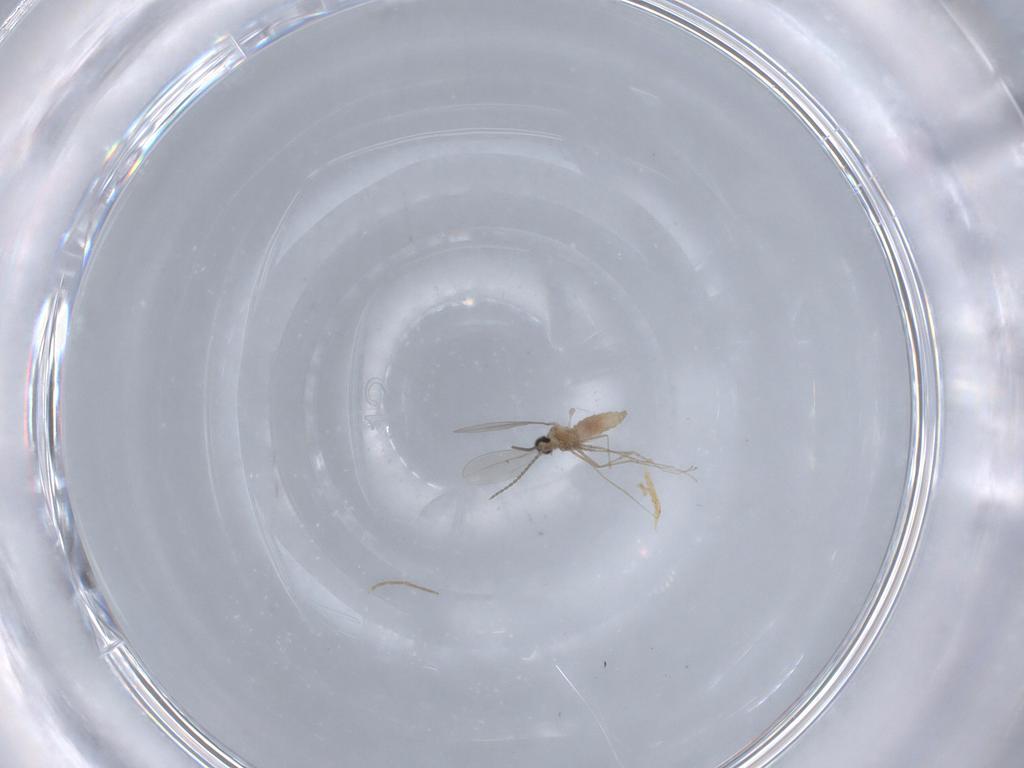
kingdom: Animalia
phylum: Arthropoda
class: Insecta
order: Diptera
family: Cecidomyiidae
